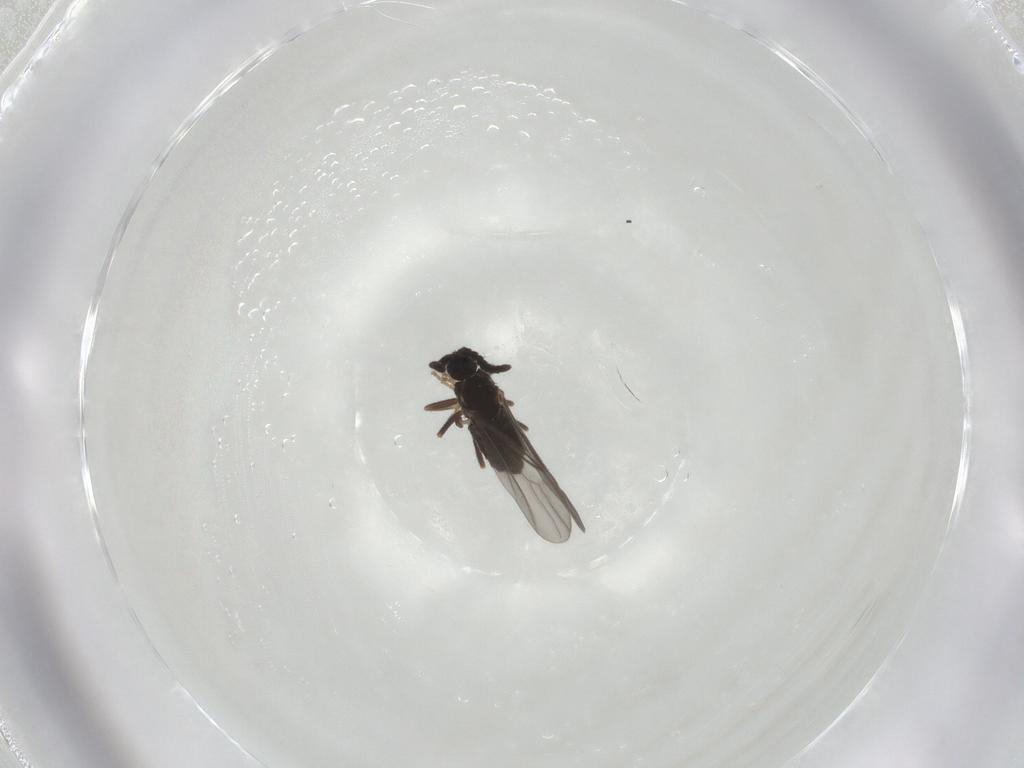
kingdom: Animalia
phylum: Arthropoda
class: Insecta
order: Diptera
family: Scatopsidae
